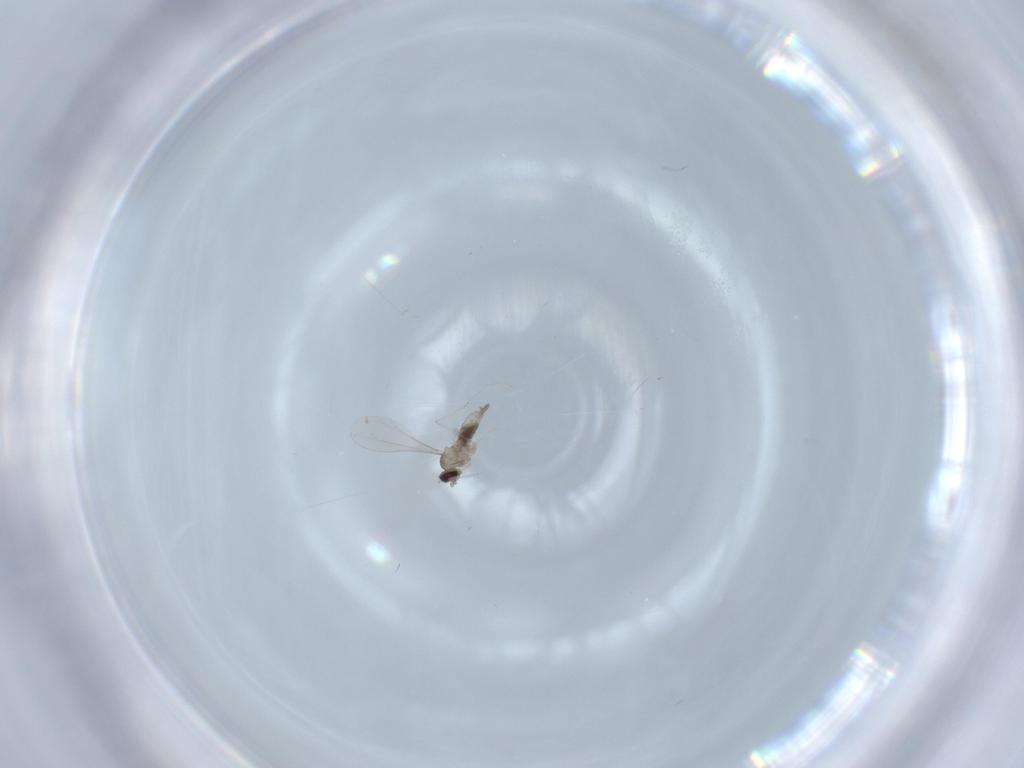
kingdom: Animalia
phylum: Arthropoda
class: Insecta
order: Diptera
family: Cecidomyiidae
